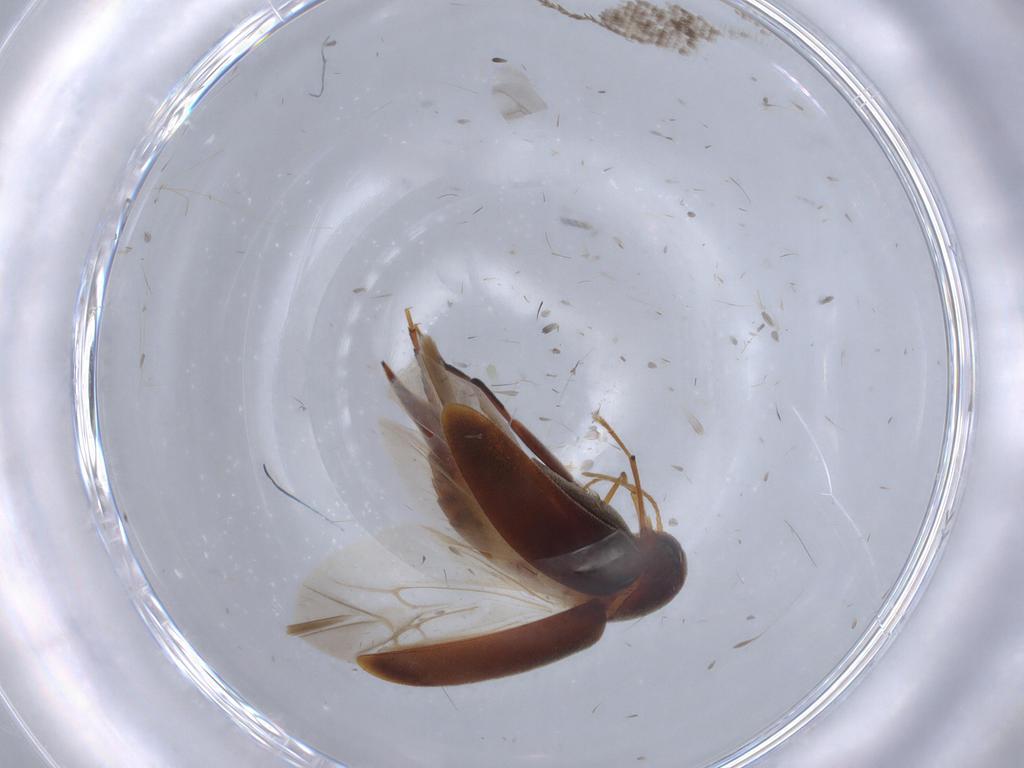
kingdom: Animalia
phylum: Arthropoda
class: Insecta
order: Coleoptera
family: Mordellidae
